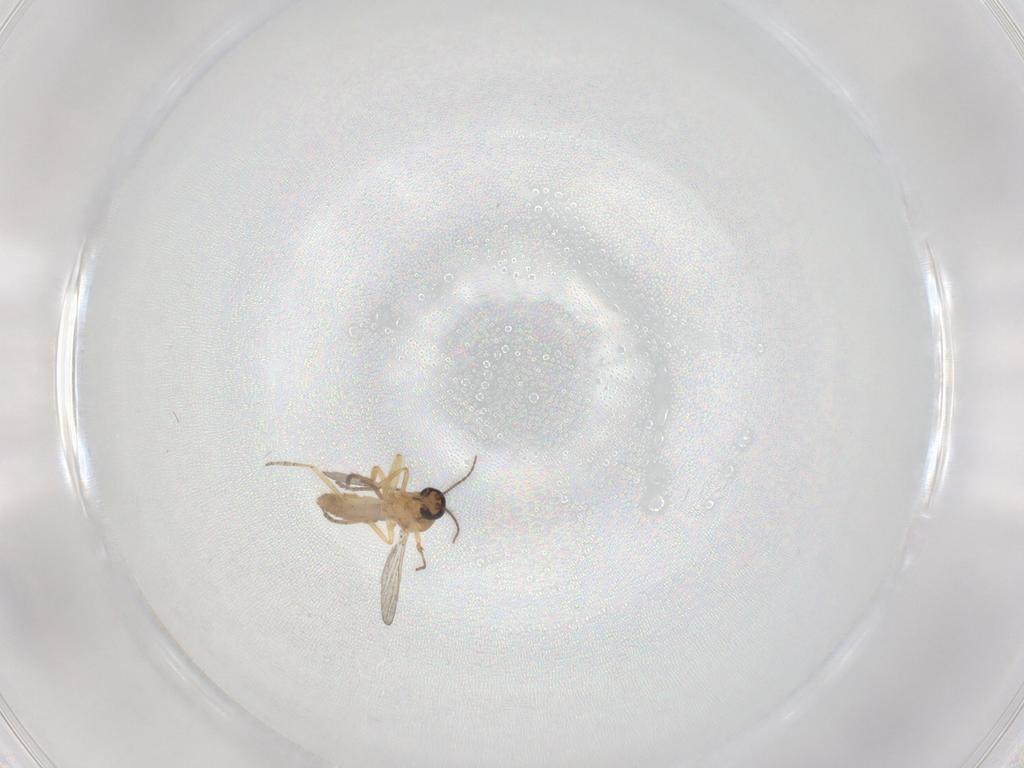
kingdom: Animalia
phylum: Arthropoda
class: Insecta
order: Diptera
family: Ceratopogonidae
